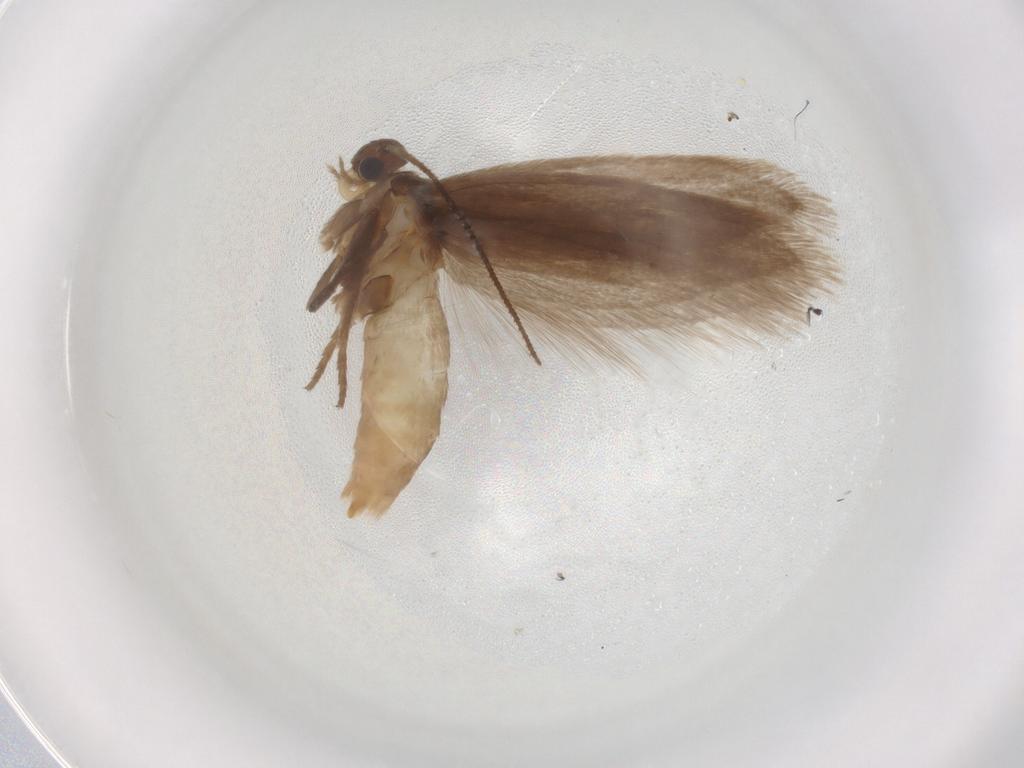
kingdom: Animalia
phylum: Arthropoda
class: Insecta
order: Lepidoptera
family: Limacodidae
